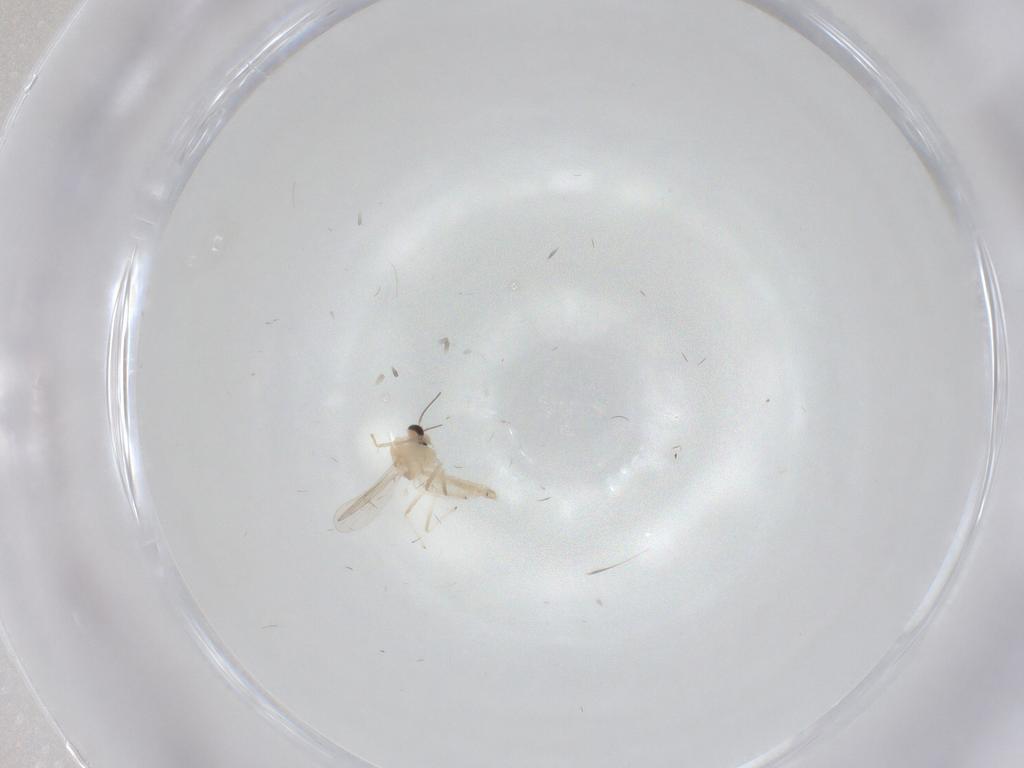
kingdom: Animalia
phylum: Arthropoda
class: Insecta
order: Diptera
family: Chironomidae
